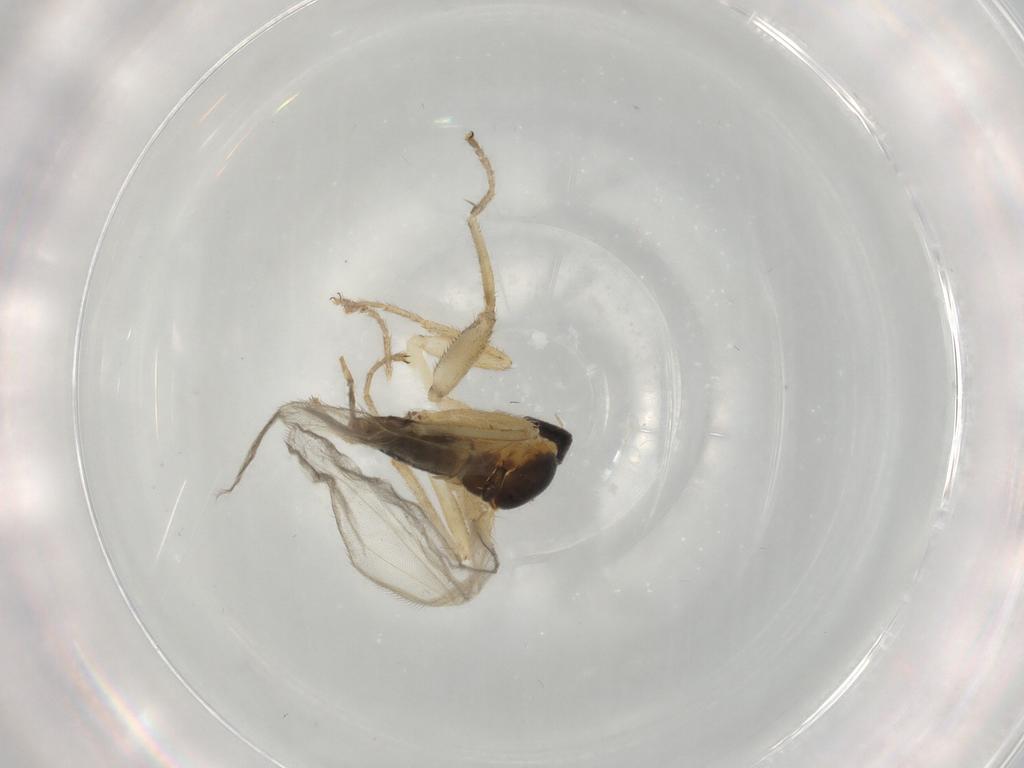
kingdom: Animalia
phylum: Arthropoda
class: Insecta
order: Diptera
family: Hybotidae
